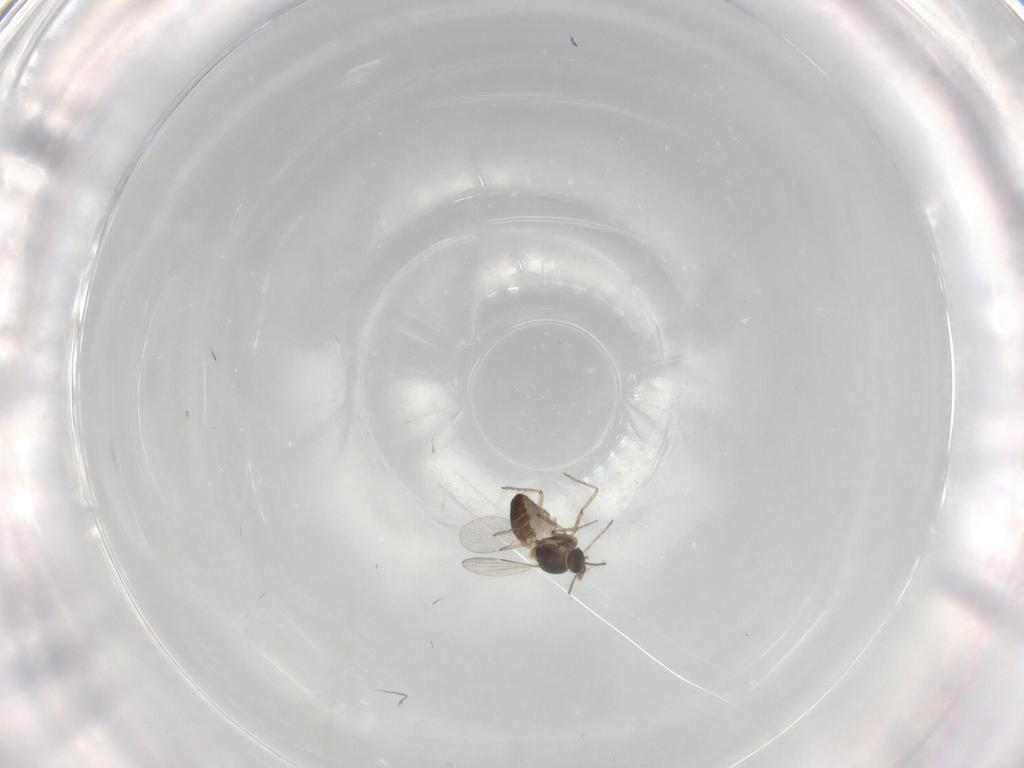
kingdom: Animalia
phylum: Arthropoda
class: Insecta
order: Diptera
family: Ceratopogonidae
